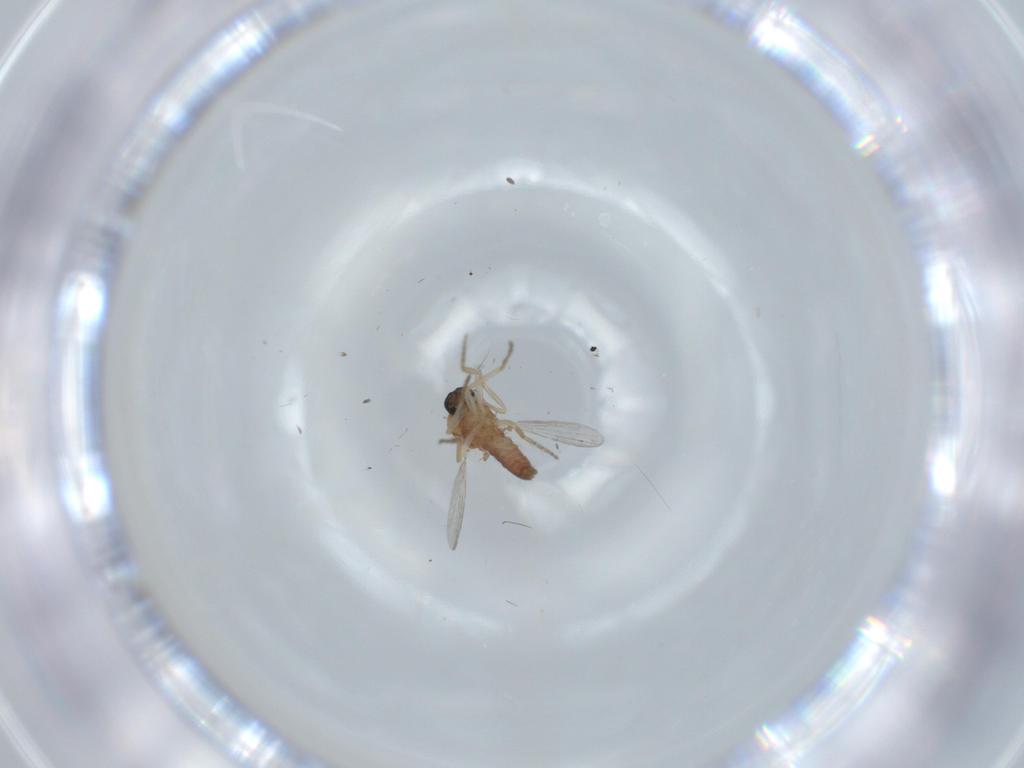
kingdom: Animalia
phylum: Arthropoda
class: Insecta
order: Diptera
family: Ceratopogonidae
